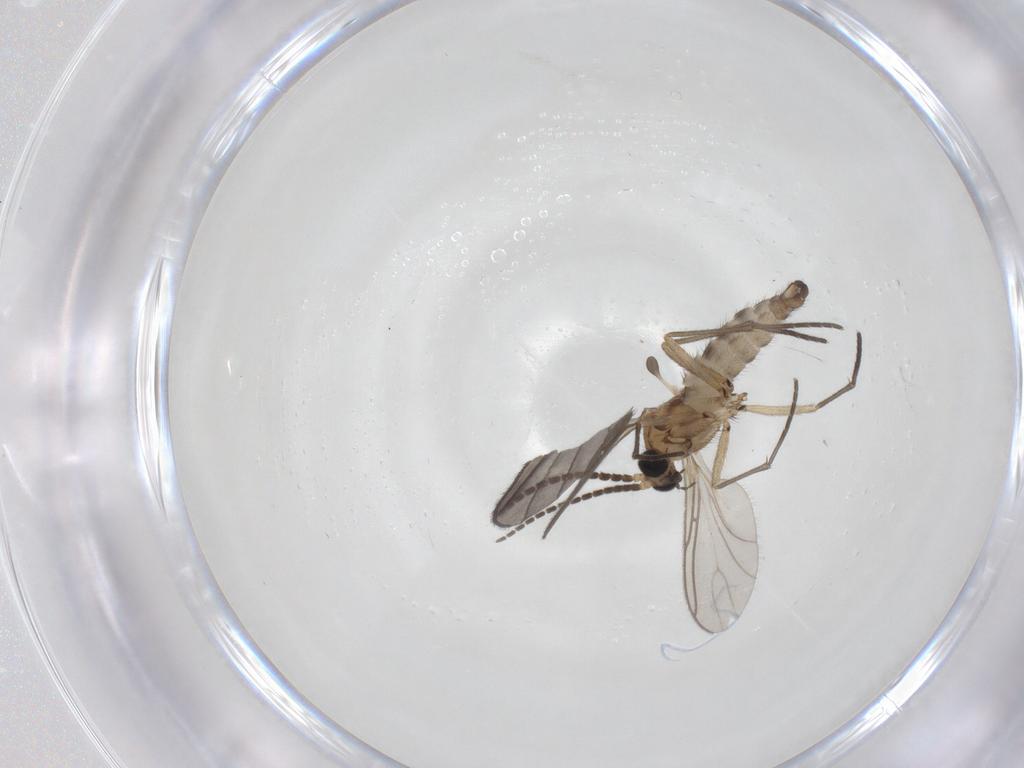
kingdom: Animalia
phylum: Arthropoda
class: Insecta
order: Diptera
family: Sciaridae
